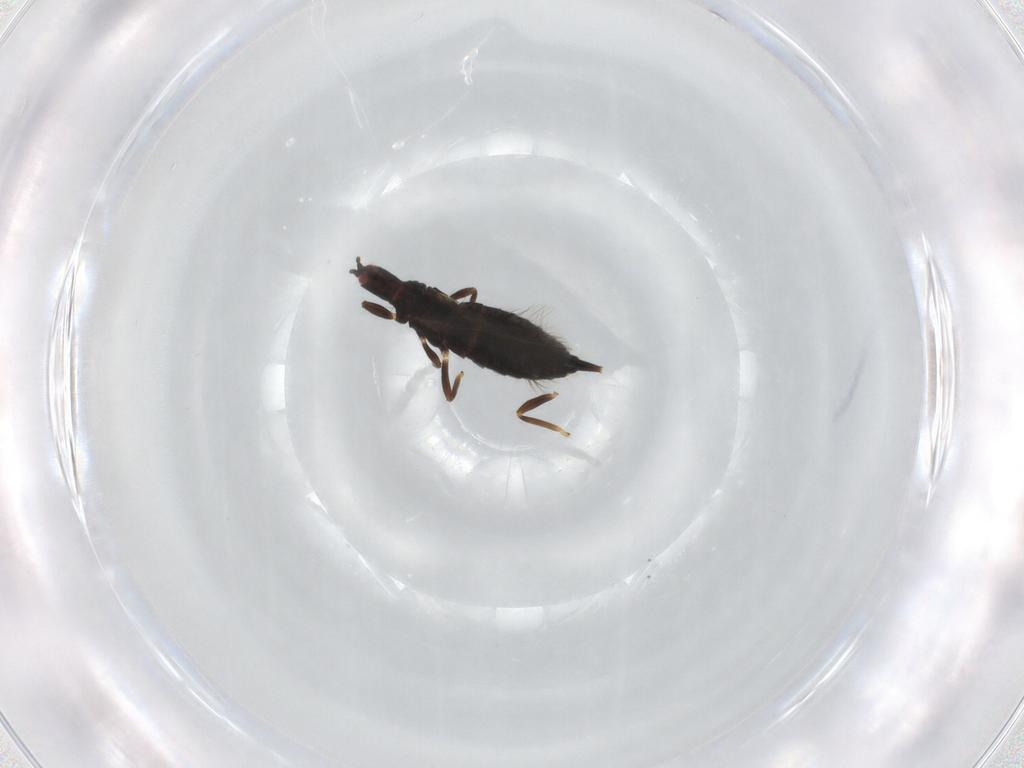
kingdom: Animalia
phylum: Arthropoda
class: Insecta
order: Thysanoptera
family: Phlaeothripidae
